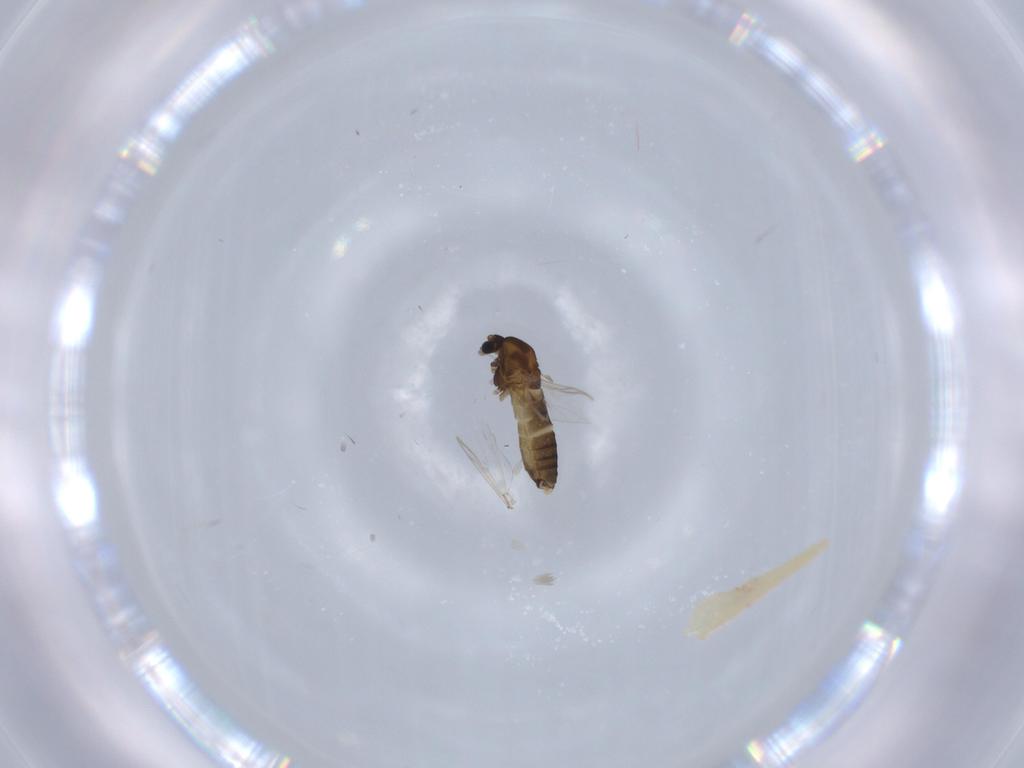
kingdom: Animalia
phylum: Arthropoda
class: Insecta
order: Diptera
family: Chironomidae
